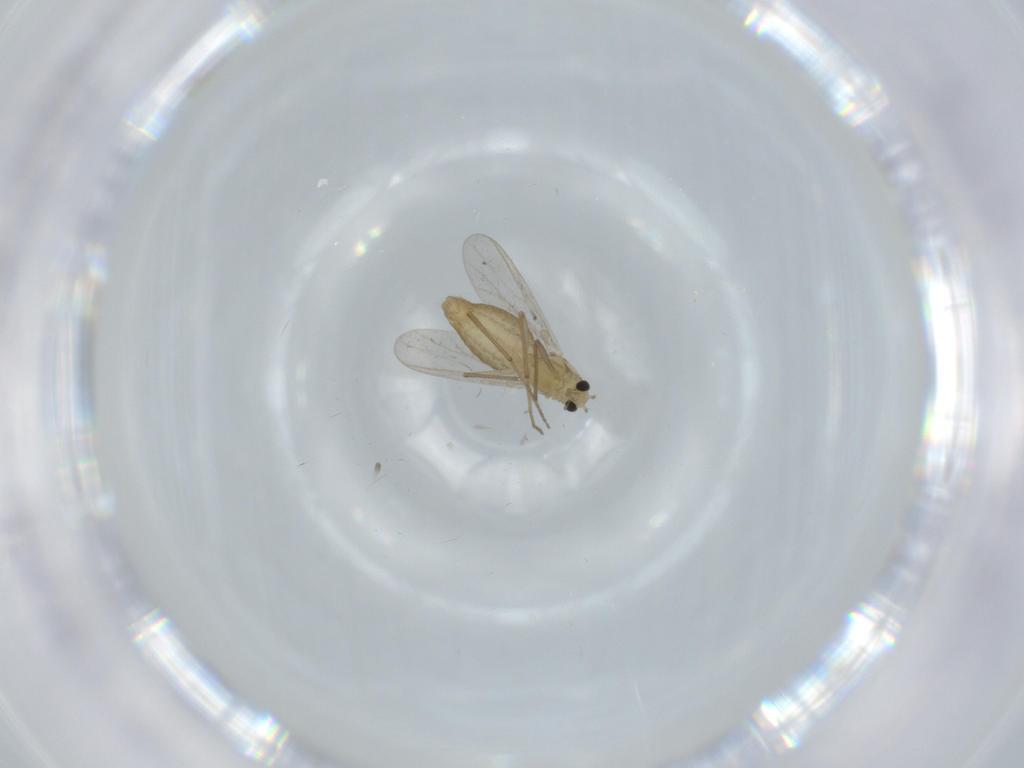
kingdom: Animalia
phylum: Arthropoda
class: Insecta
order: Diptera
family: Chironomidae
